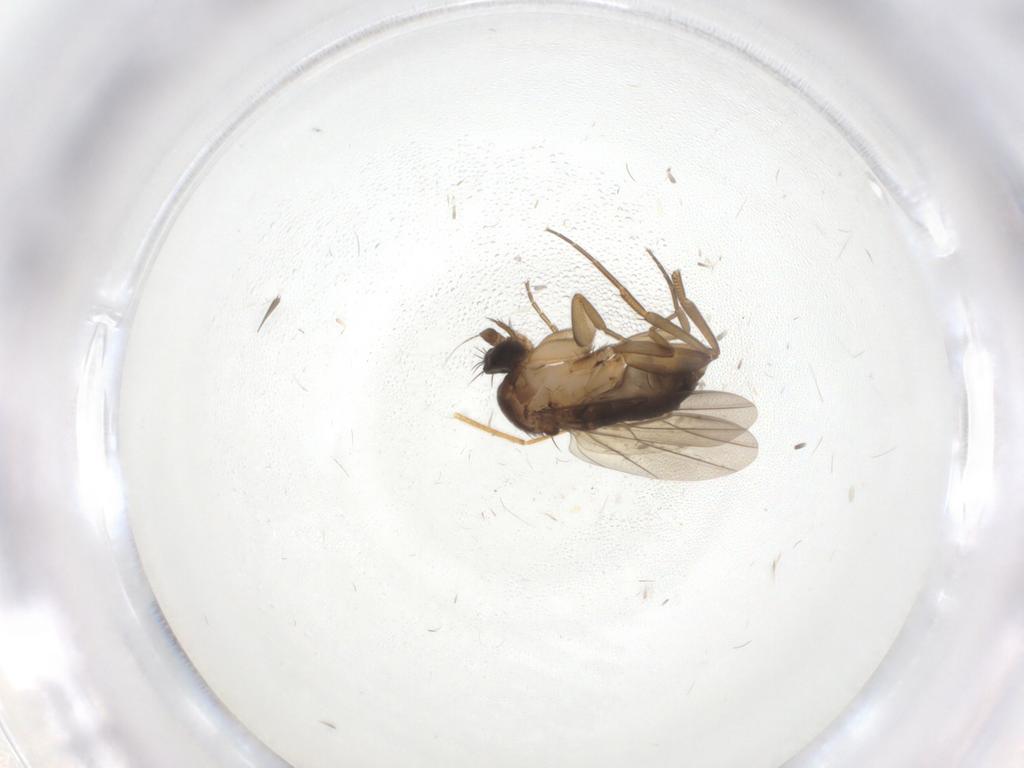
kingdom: Animalia
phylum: Arthropoda
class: Insecta
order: Diptera
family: Phoridae
